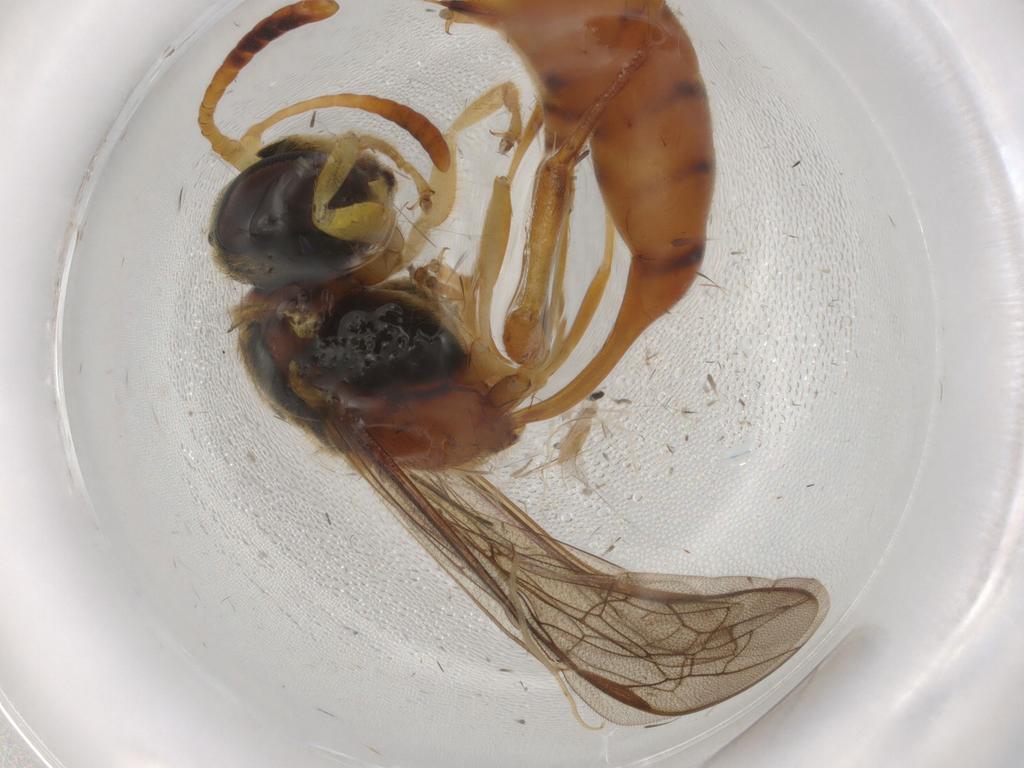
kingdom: Animalia
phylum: Arthropoda
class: Insecta
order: Hymenoptera
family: Psenidae
